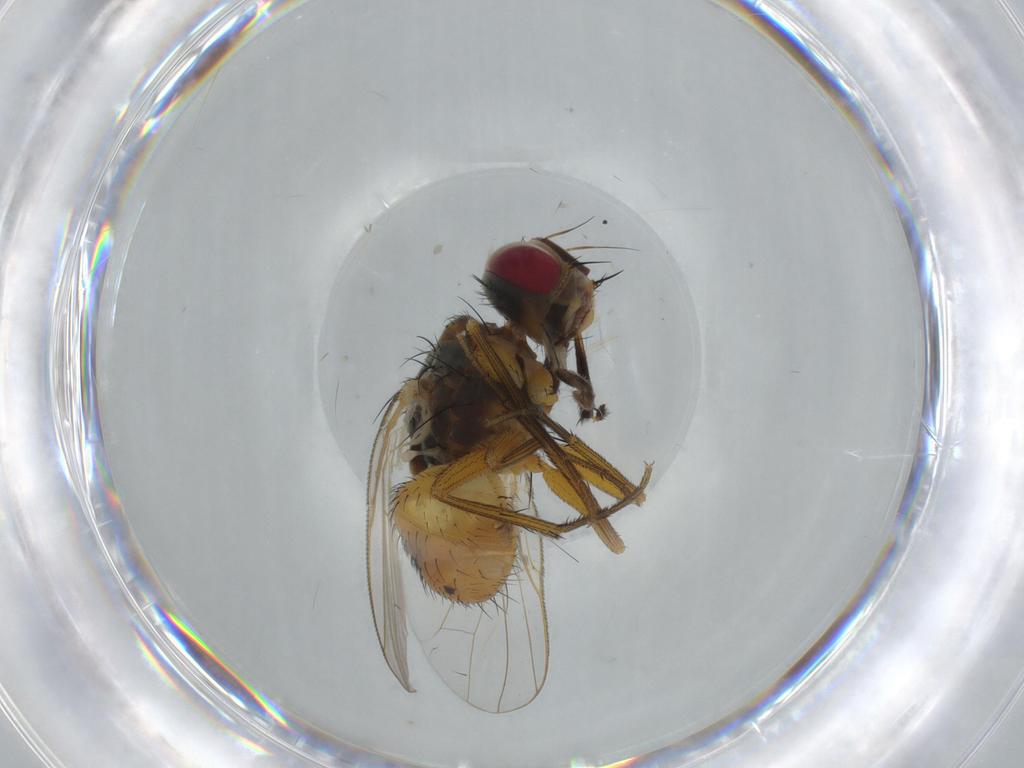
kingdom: Animalia
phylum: Arthropoda
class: Insecta
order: Diptera
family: Muscidae
